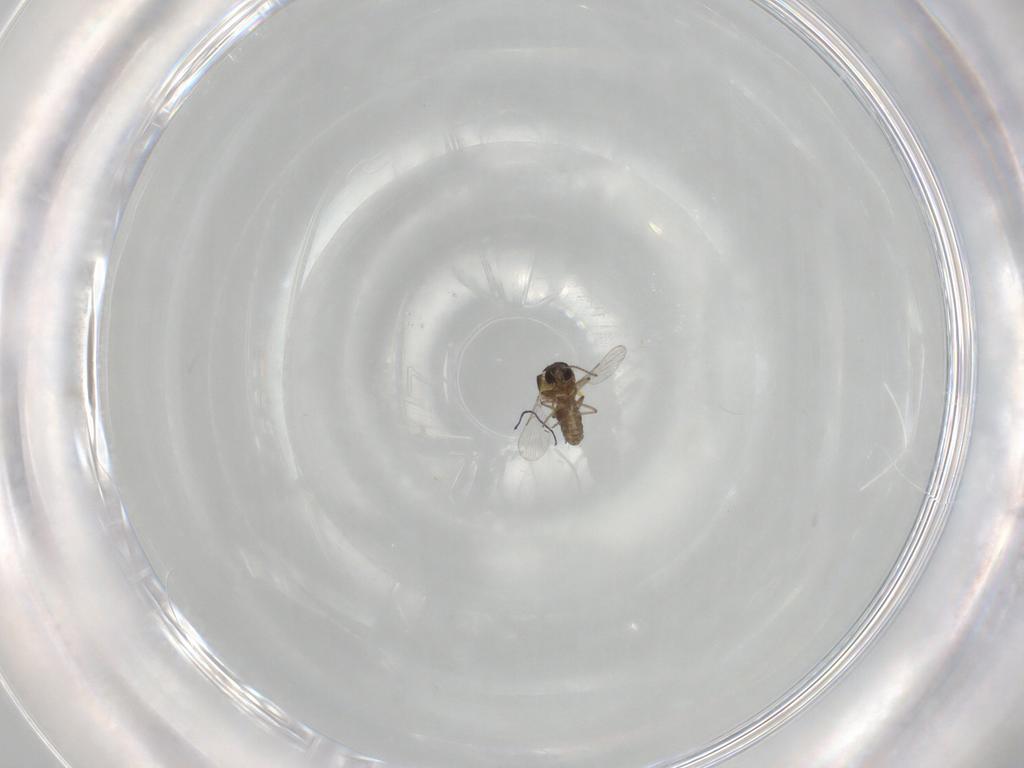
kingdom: Animalia
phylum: Arthropoda
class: Insecta
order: Diptera
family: Ceratopogonidae
